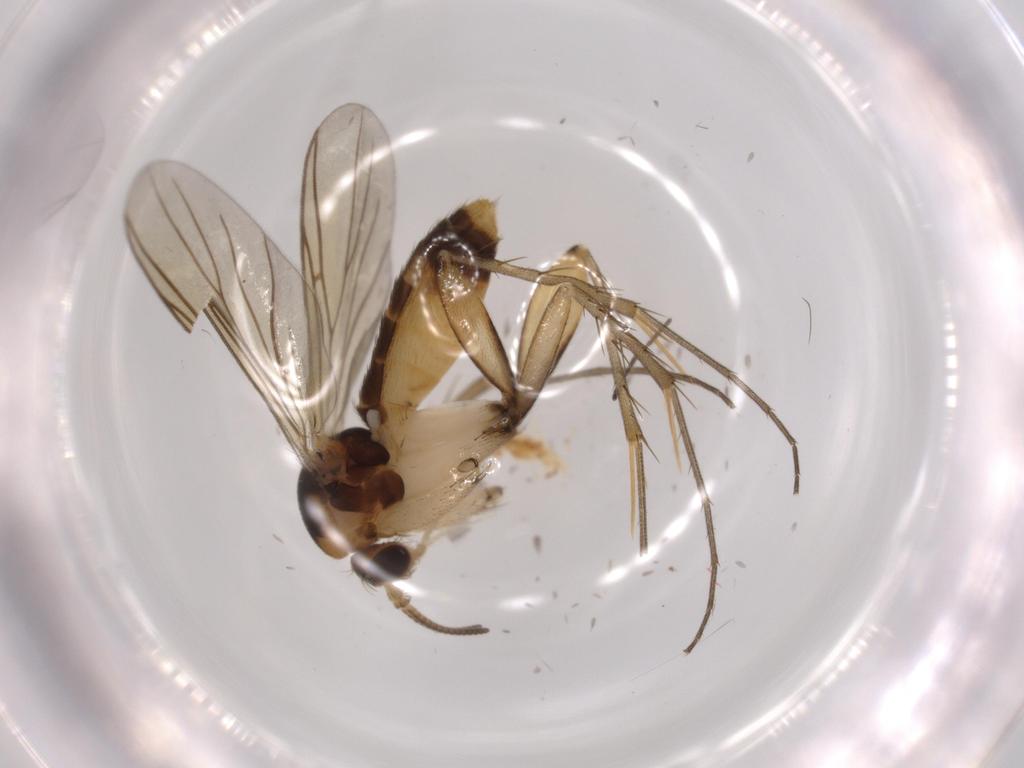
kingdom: Animalia
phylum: Arthropoda
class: Insecta
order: Diptera
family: Mycetophilidae
